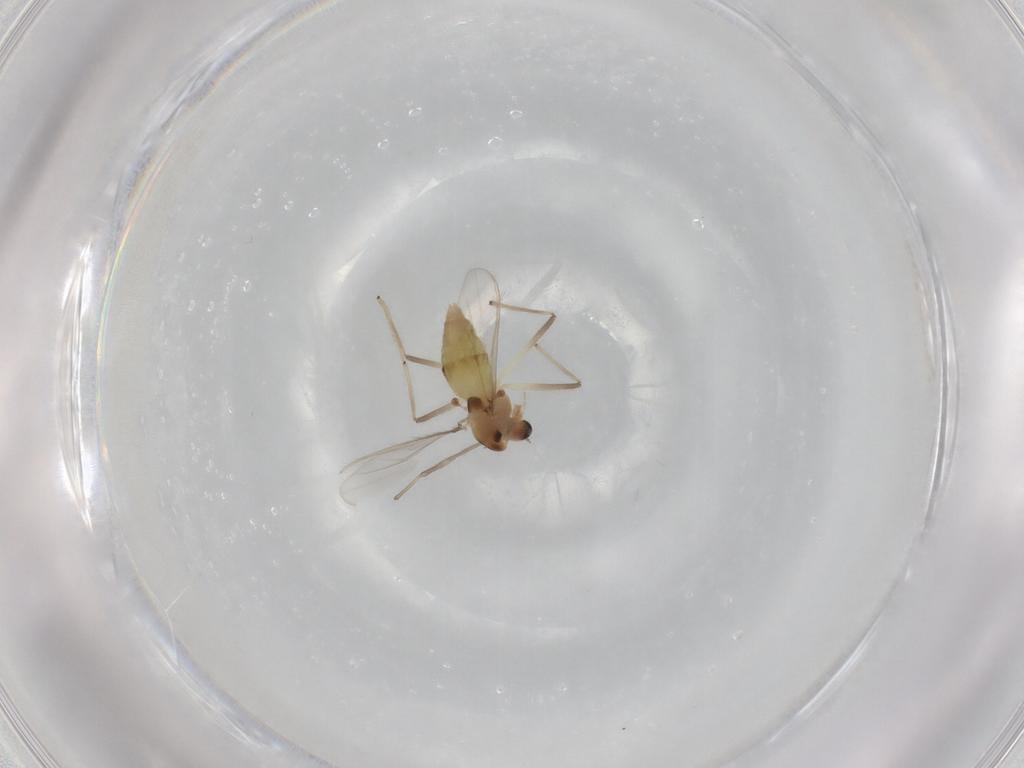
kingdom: Animalia
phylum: Arthropoda
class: Insecta
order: Diptera
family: Chironomidae
